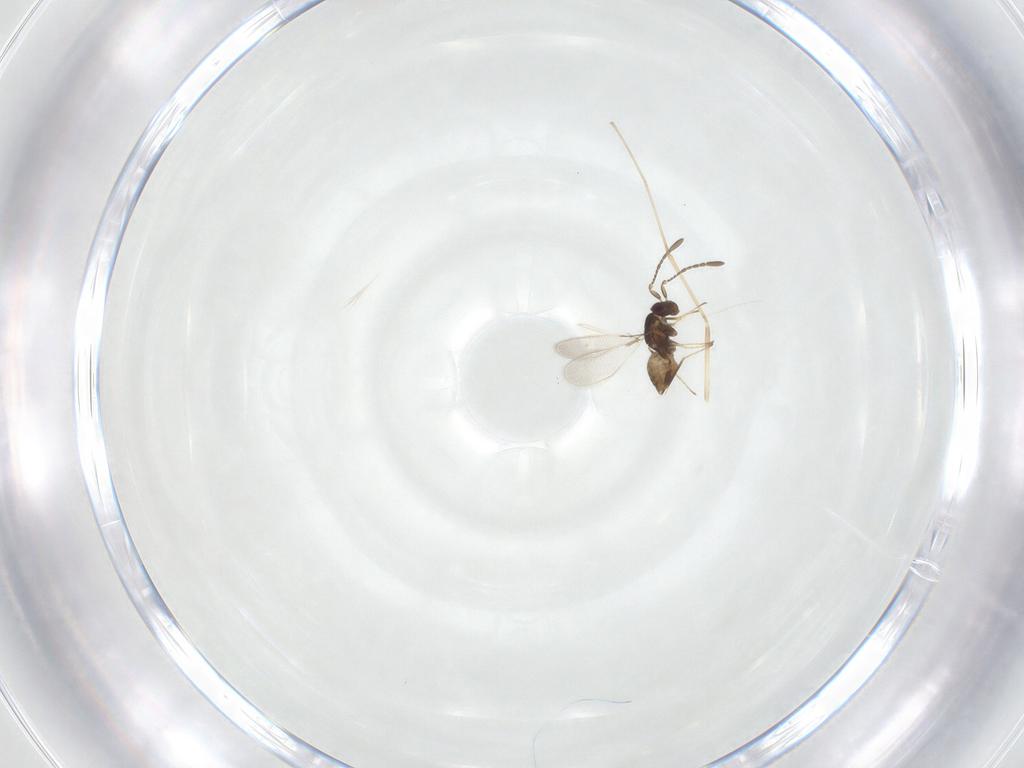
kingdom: Animalia
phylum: Arthropoda
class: Insecta
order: Hymenoptera
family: Mymaridae
